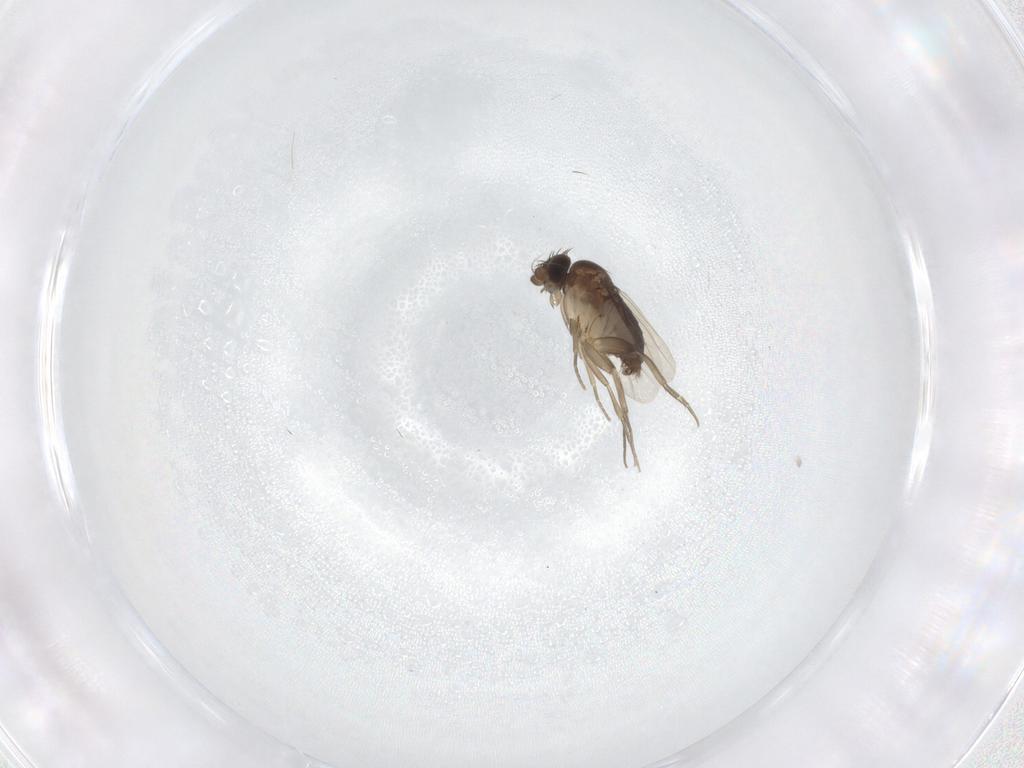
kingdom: Animalia
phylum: Arthropoda
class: Insecta
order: Diptera
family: Phoridae
